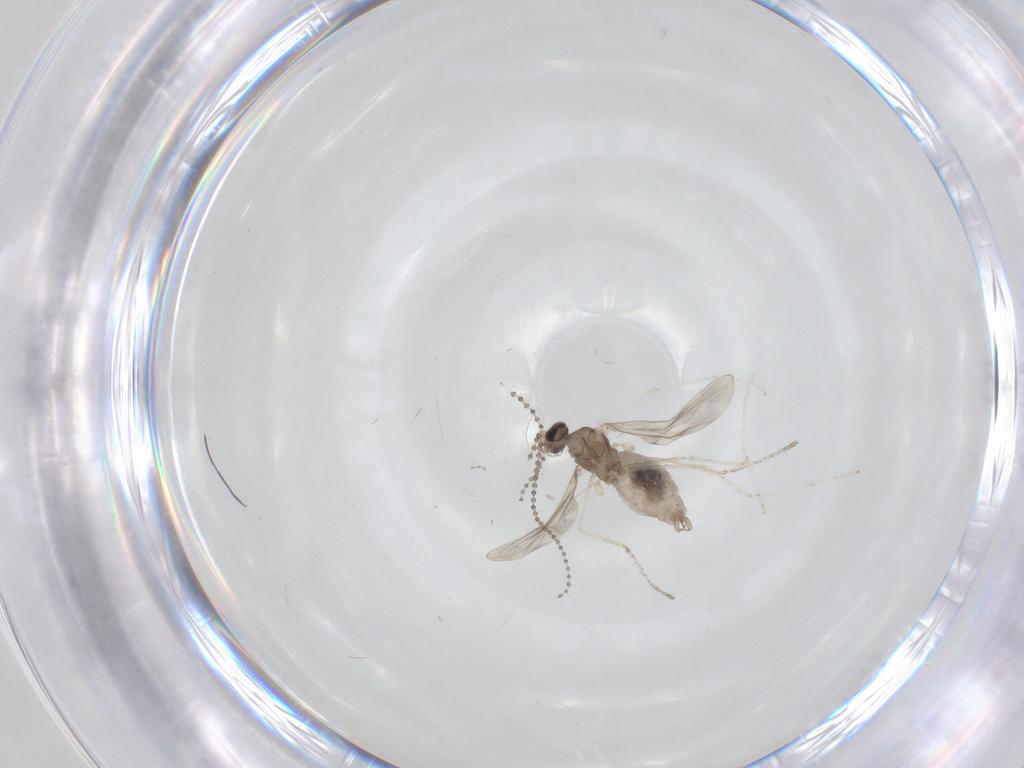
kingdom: Animalia
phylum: Arthropoda
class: Insecta
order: Diptera
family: Cecidomyiidae
